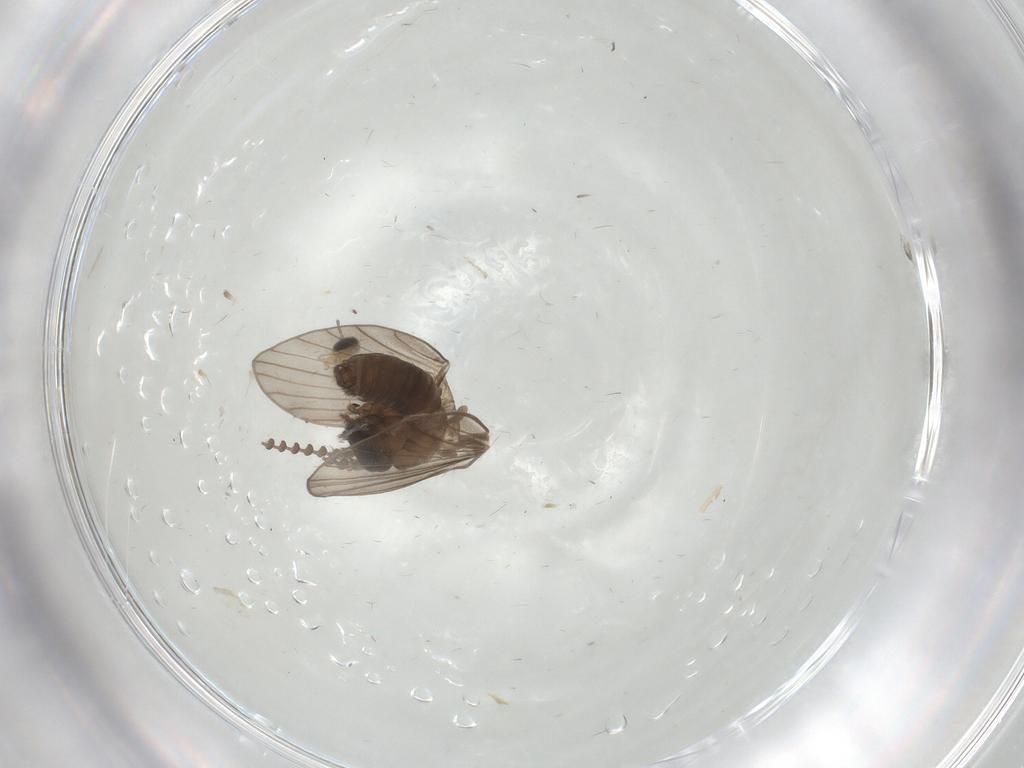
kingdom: Animalia
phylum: Arthropoda
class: Insecta
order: Diptera
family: Psychodidae
